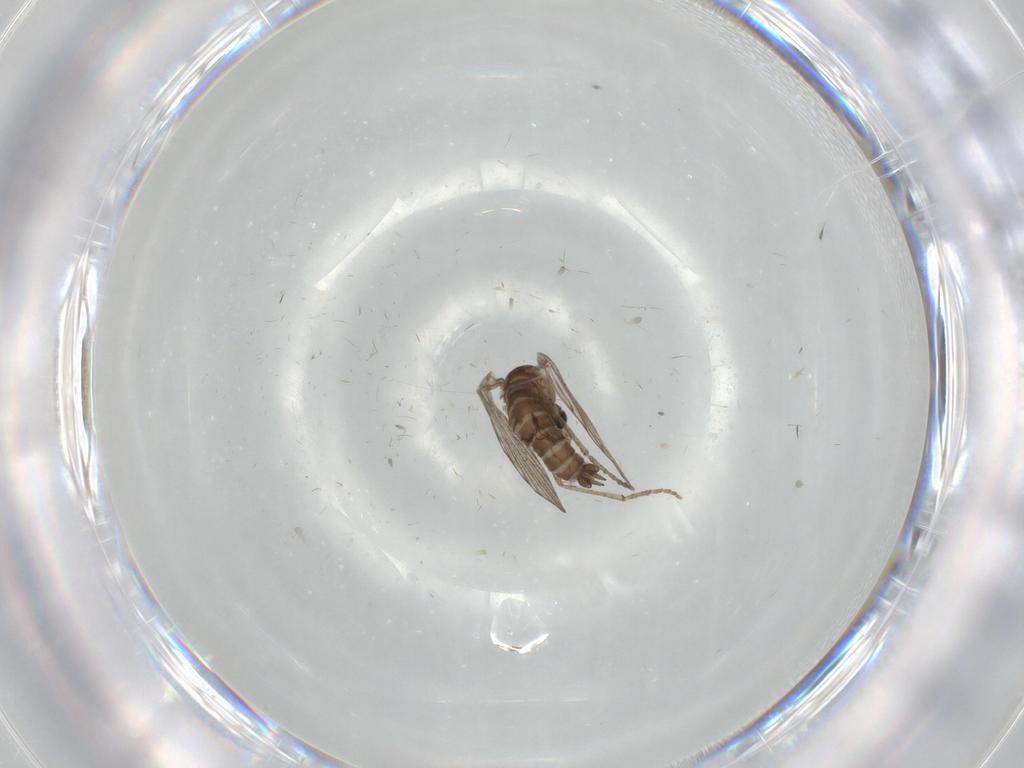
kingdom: Animalia
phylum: Arthropoda
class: Insecta
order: Diptera
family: Psychodidae
